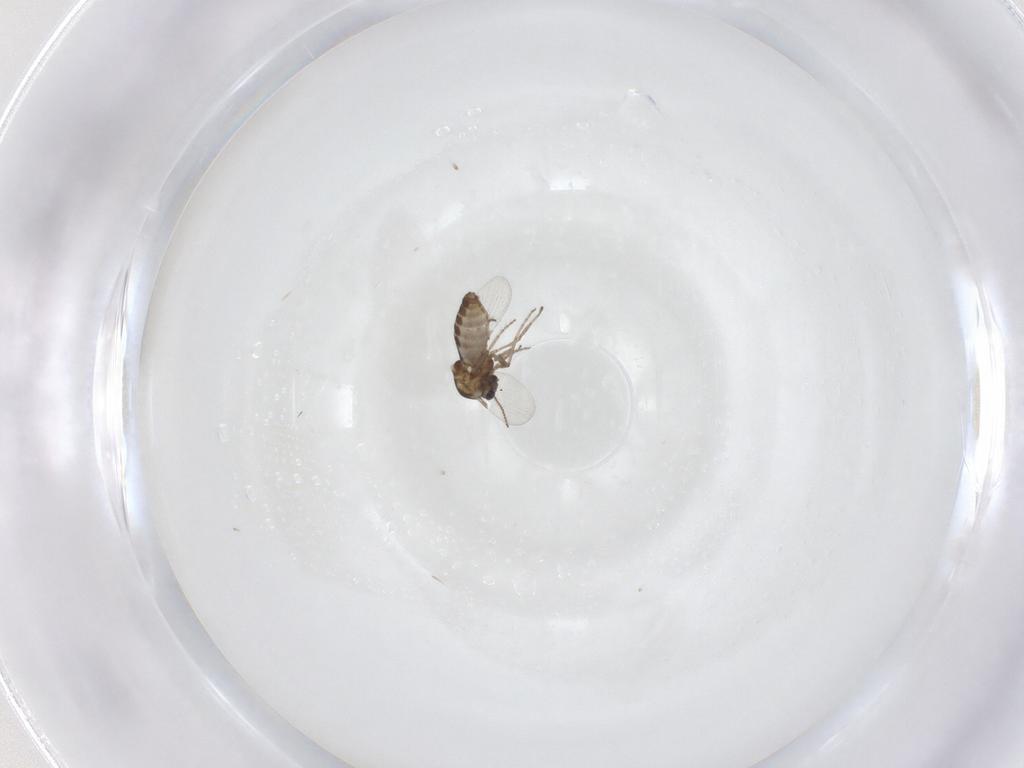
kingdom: Animalia
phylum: Arthropoda
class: Insecta
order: Diptera
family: Ceratopogonidae
